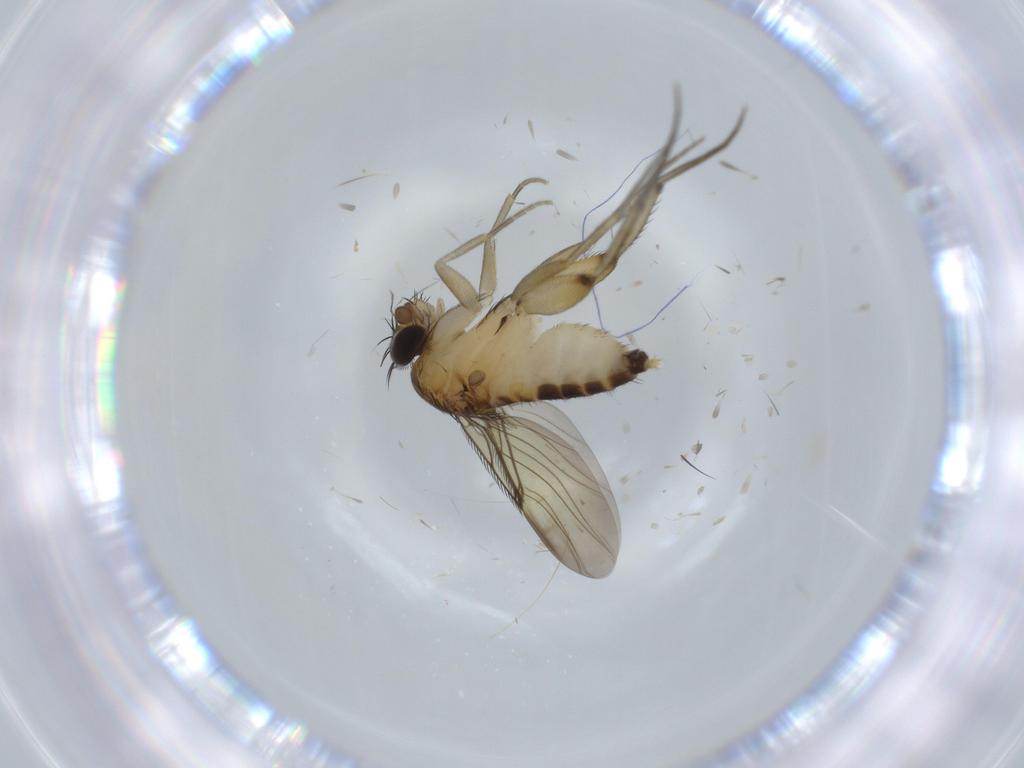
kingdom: Animalia
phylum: Arthropoda
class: Insecta
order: Diptera
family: Phoridae
